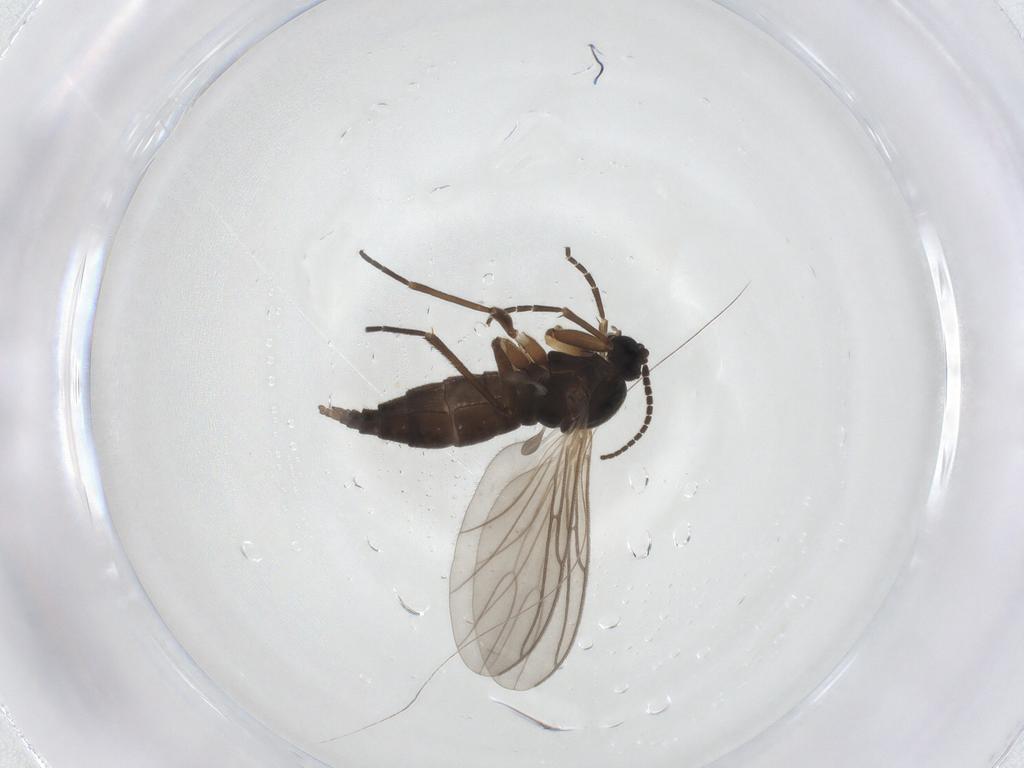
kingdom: Animalia
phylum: Arthropoda
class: Insecta
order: Diptera
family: Sciaridae
